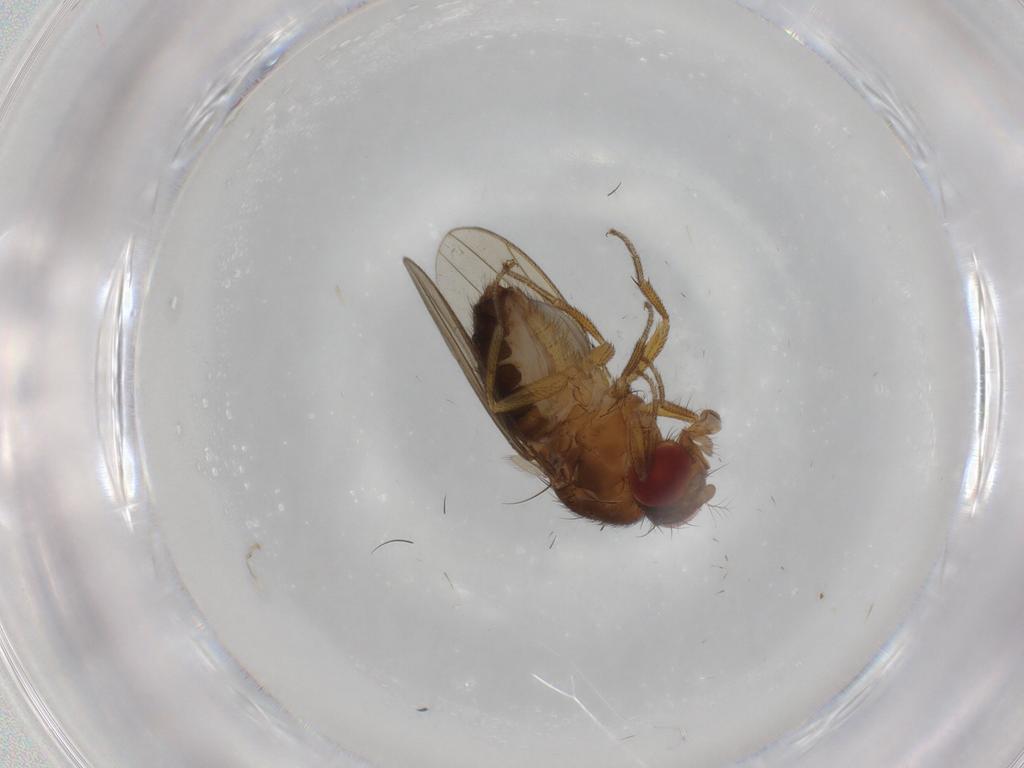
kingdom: Animalia
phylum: Arthropoda
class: Insecta
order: Diptera
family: Drosophilidae
